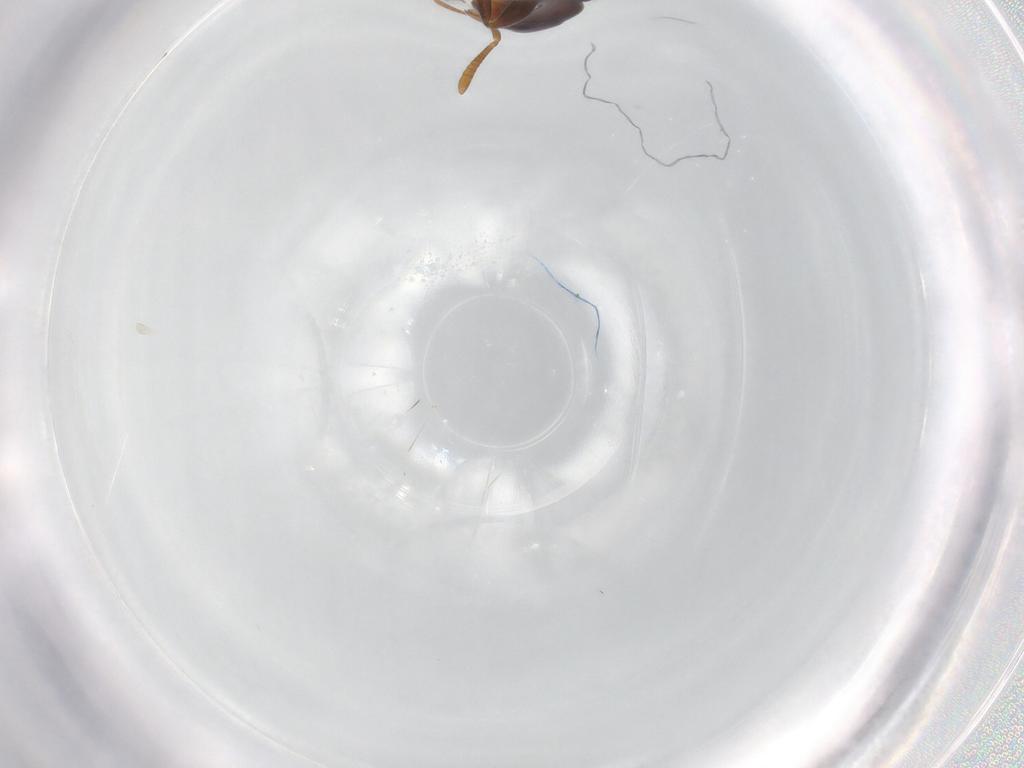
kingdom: Animalia
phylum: Arthropoda
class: Insecta
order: Hymenoptera
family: Formicidae
